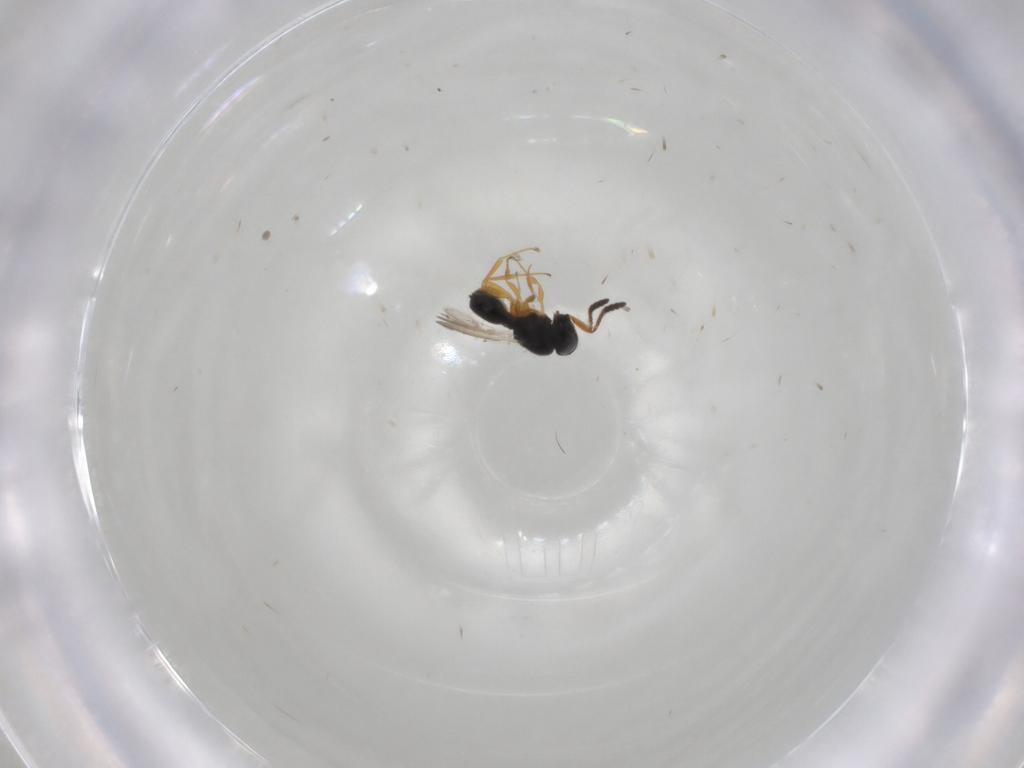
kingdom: Animalia
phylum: Arthropoda
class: Insecta
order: Hymenoptera
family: Scelionidae
